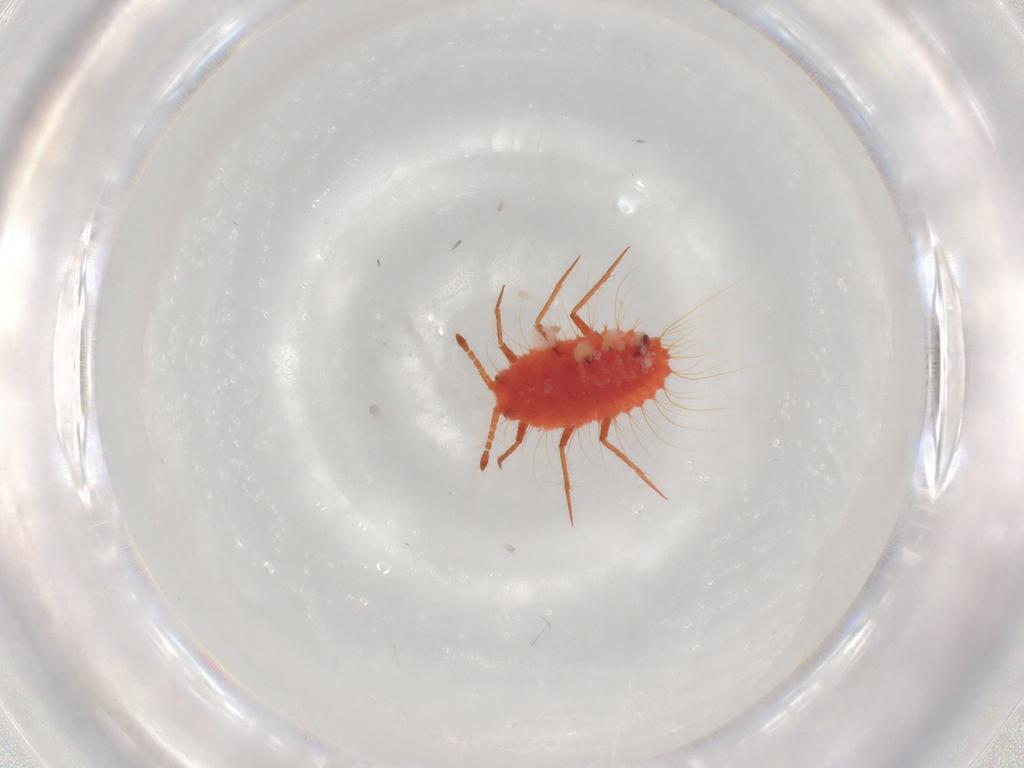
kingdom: Animalia
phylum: Arthropoda
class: Insecta
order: Hemiptera
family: Monophlebidae
